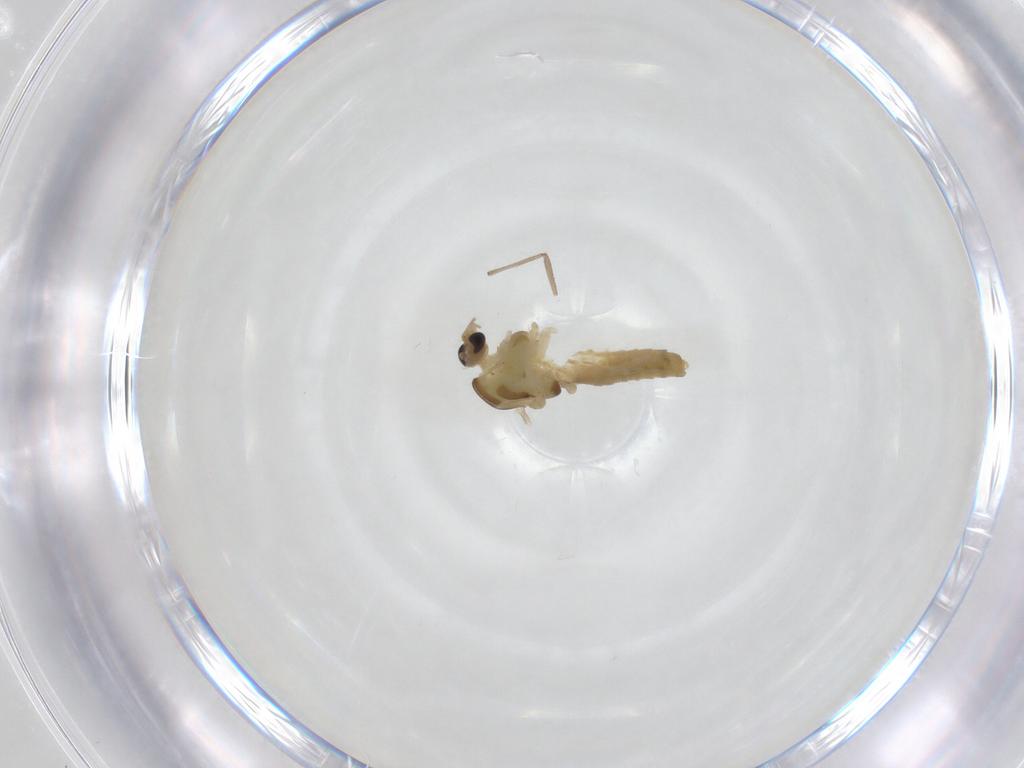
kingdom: Animalia
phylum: Arthropoda
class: Insecta
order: Diptera
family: Chironomidae
